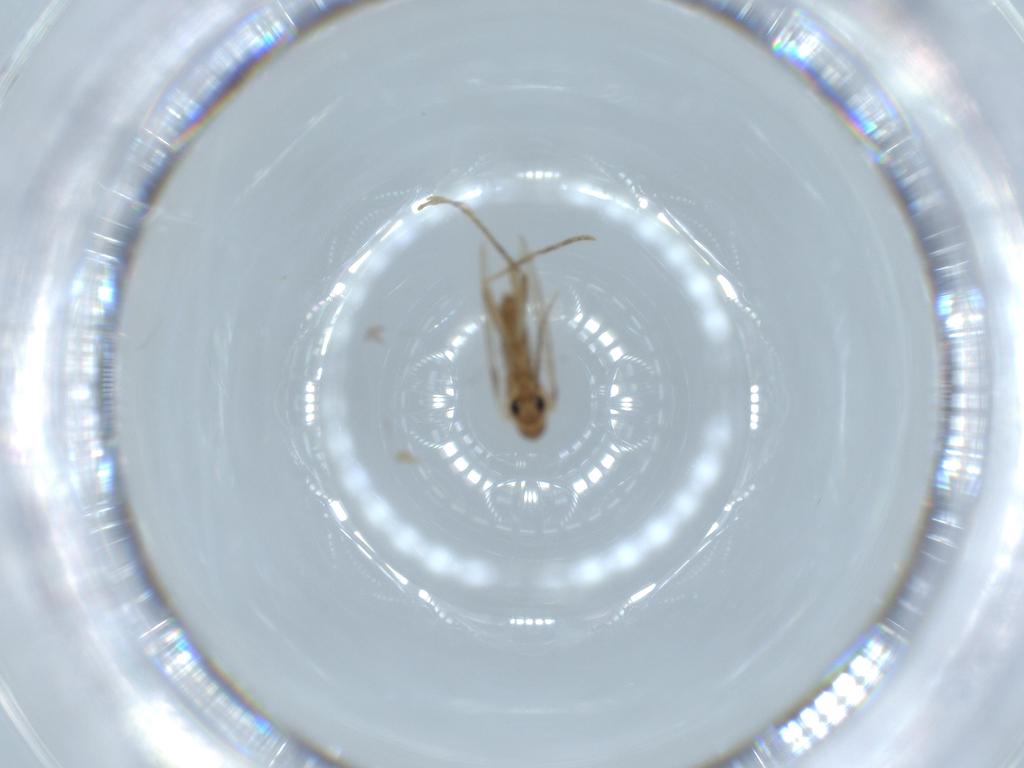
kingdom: Animalia
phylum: Arthropoda
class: Insecta
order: Diptera
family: Psychodidae
